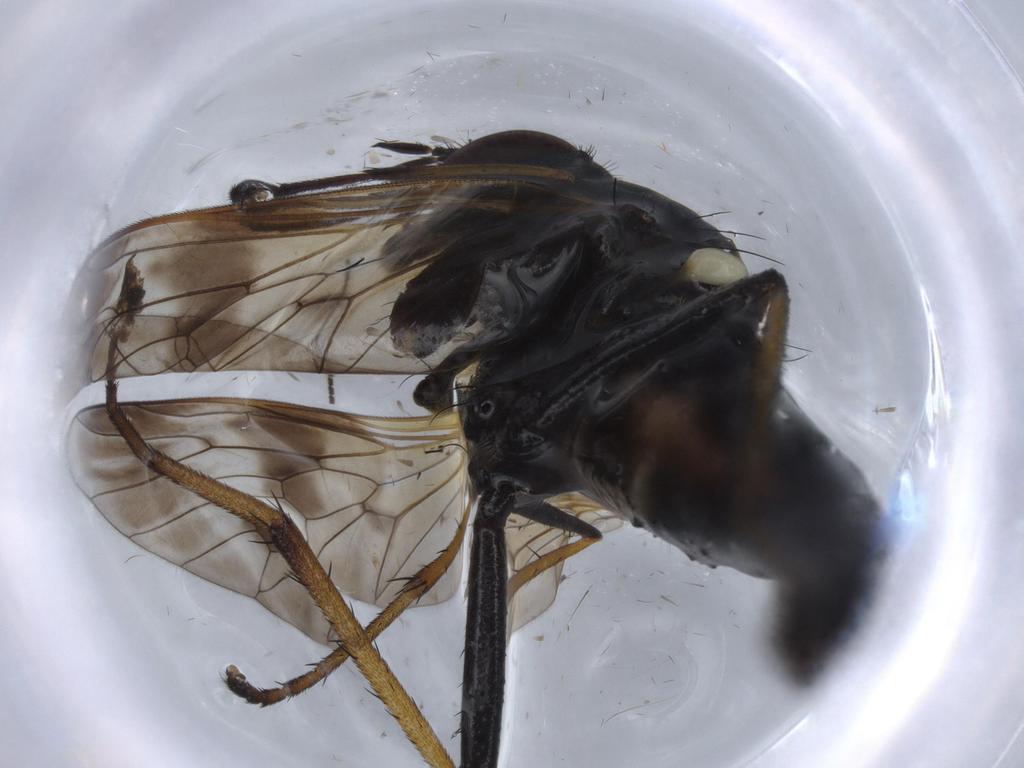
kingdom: Animalia
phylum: Arthropoda
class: Insecta
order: Diptera
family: Therevidae
